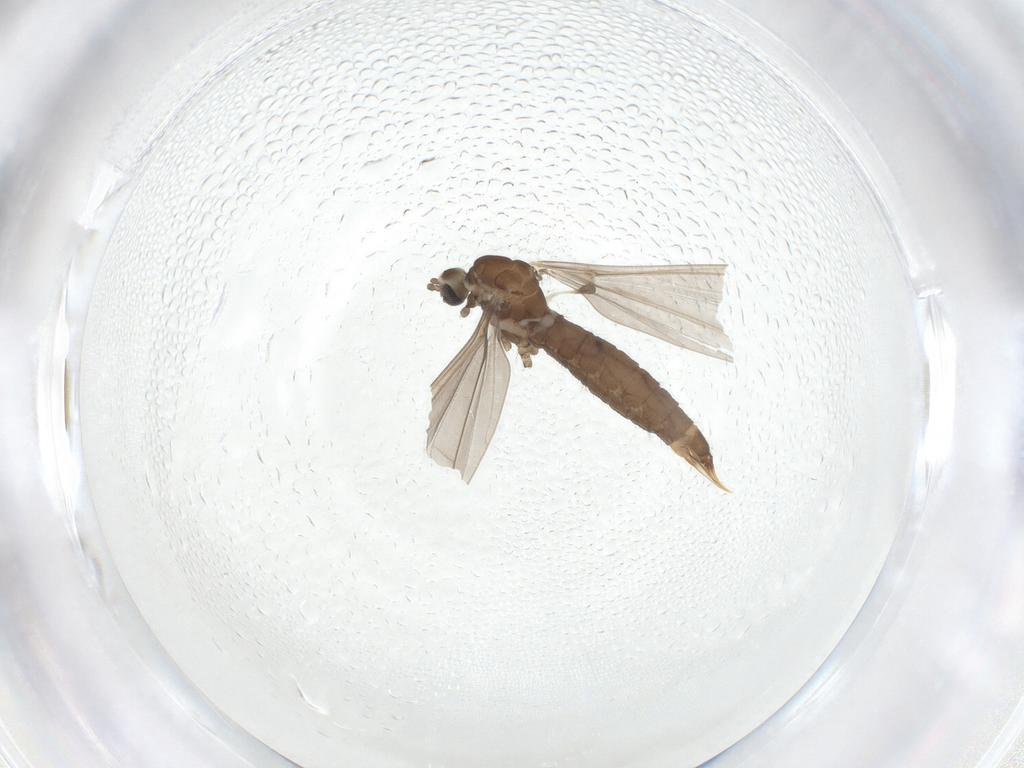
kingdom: Animalia
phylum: Arthropoda
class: Insecta
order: Diptera
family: Limoniidae
